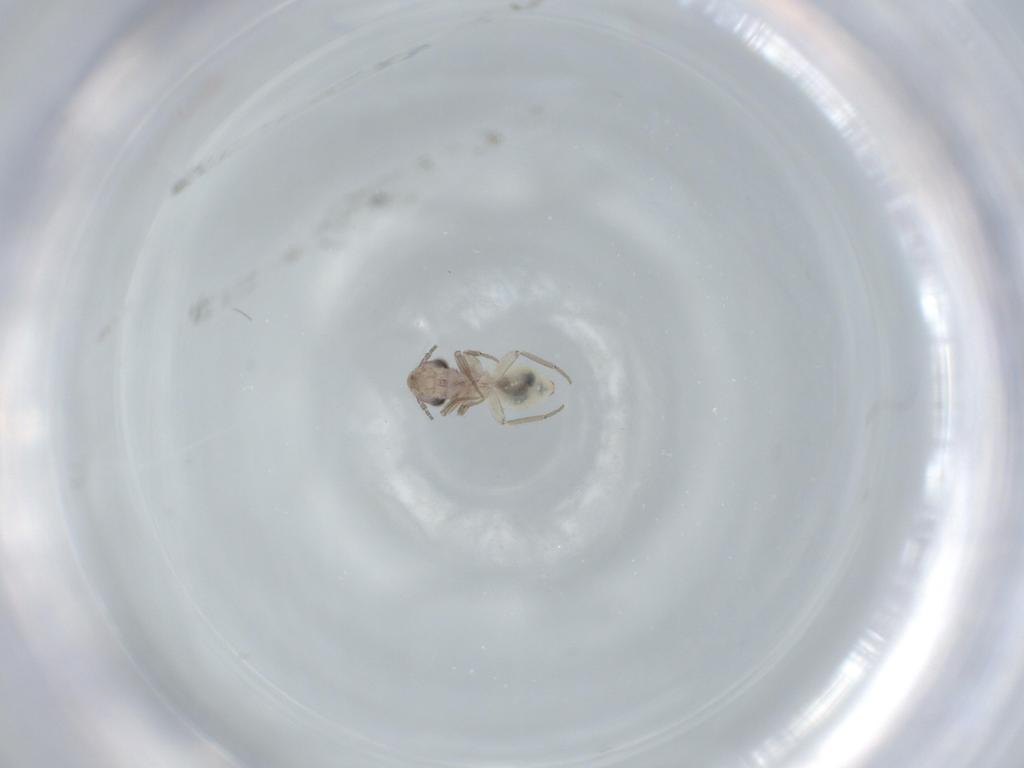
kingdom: Animalia
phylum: Arthropoda
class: Insecta
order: Psocodea
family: Lepidopsocidae
